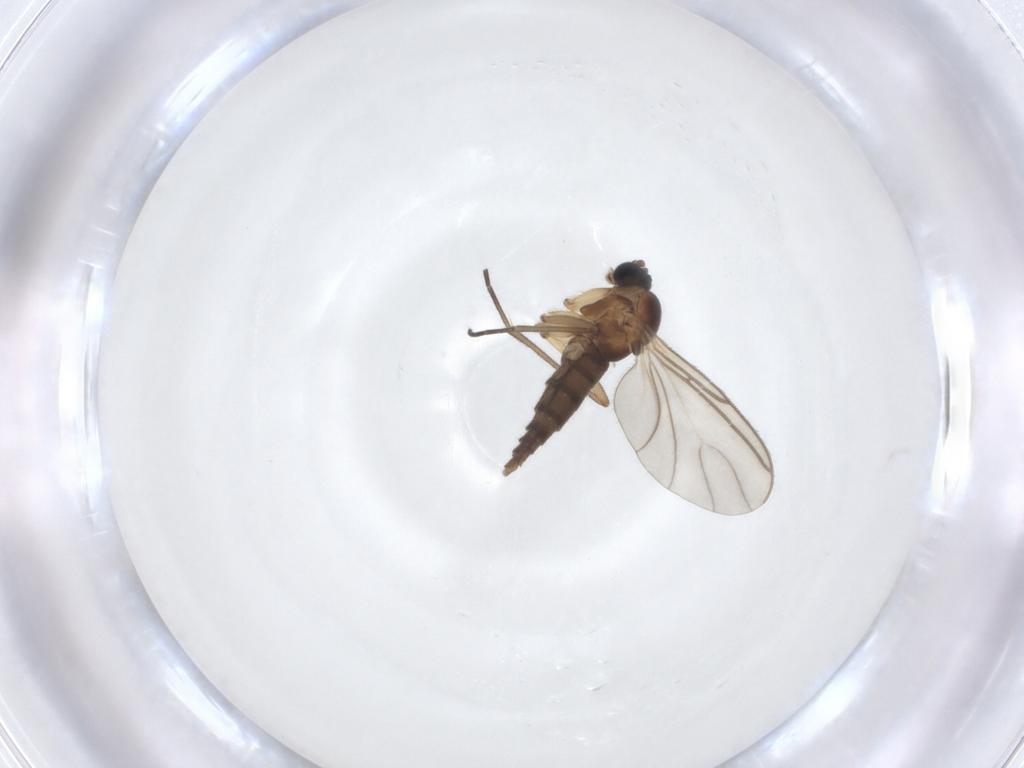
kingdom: Animalia
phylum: Arthropoda
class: Insecta
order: Diptera
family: Sciaridae
